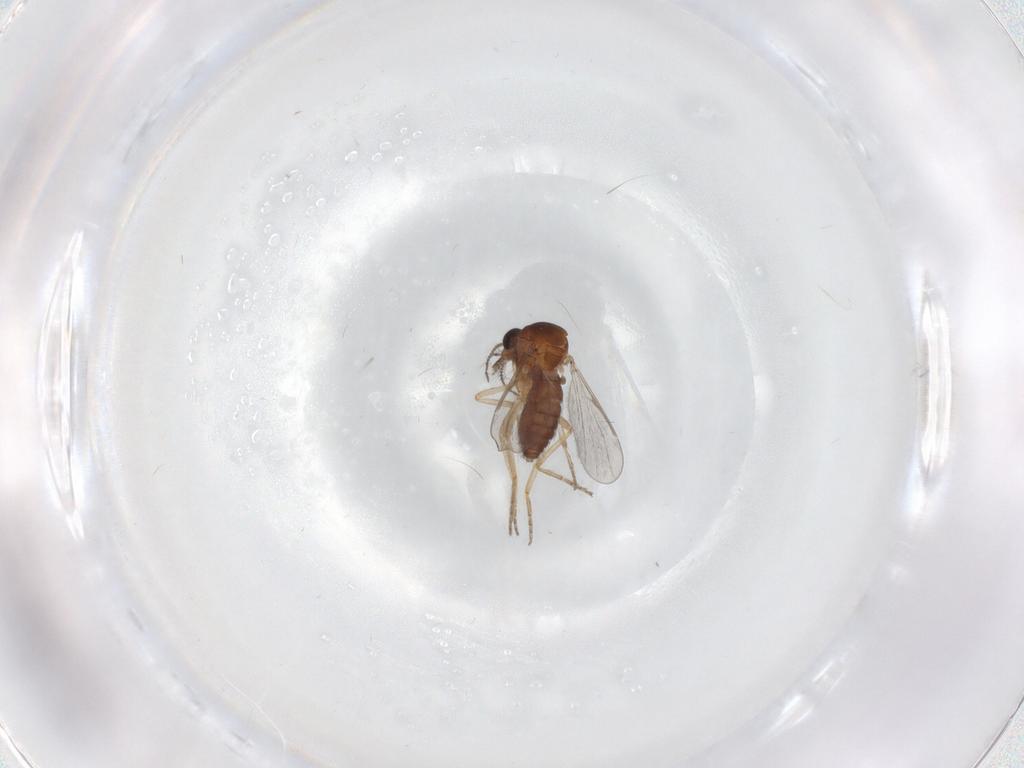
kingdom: Animalia
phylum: Arthropoda
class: Insecta
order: Diptera
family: Ceratopogonidae
